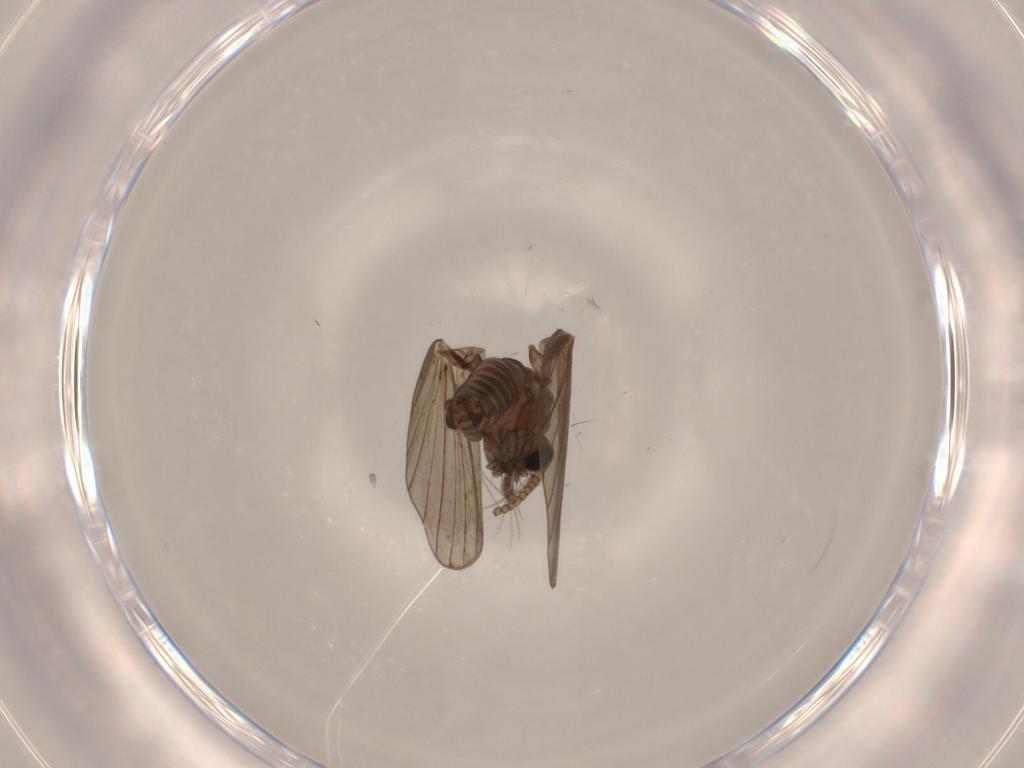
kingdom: Animalia
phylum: Arthropoda
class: Insecta
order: Diptera
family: Psychodidae
